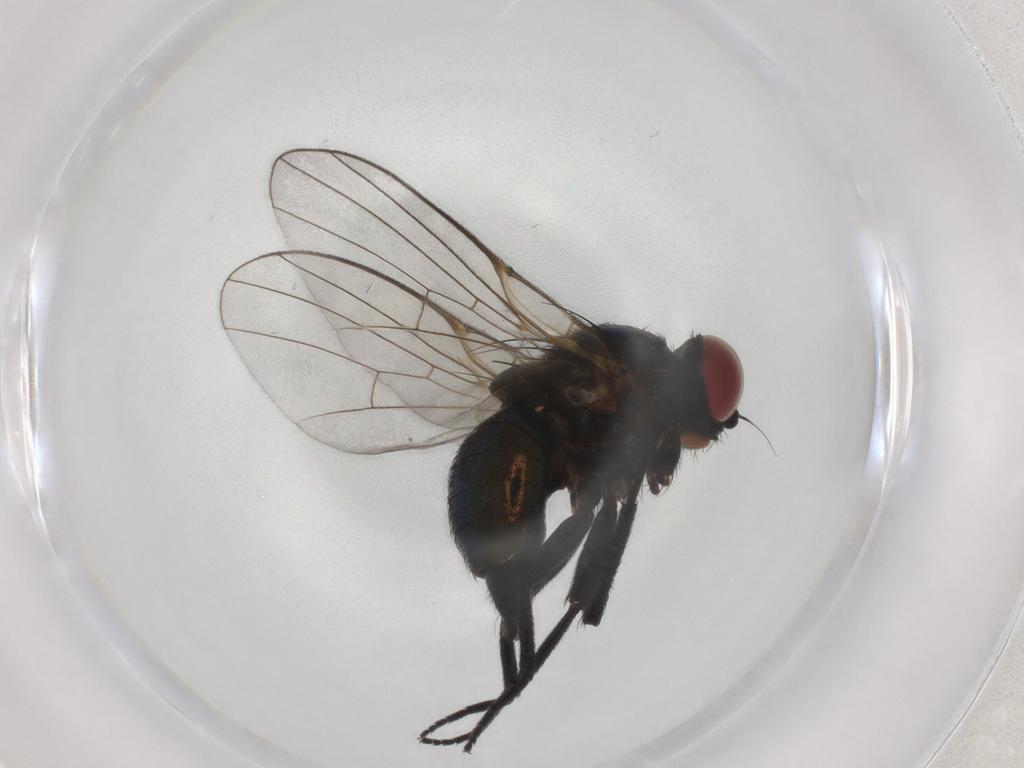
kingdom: Animalia
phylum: Arthropoda
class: Insecta
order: Diptera
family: Agromyzidae
